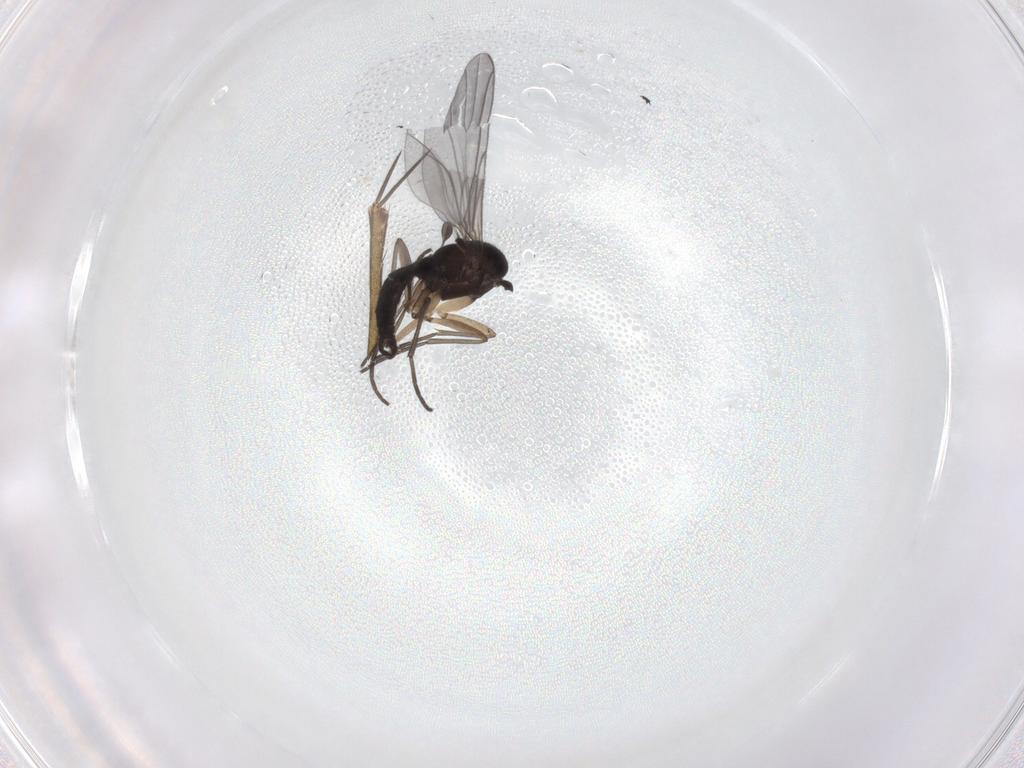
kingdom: Animalia
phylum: Arthropoda
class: Insecta
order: Diptera
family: Sciaridae
